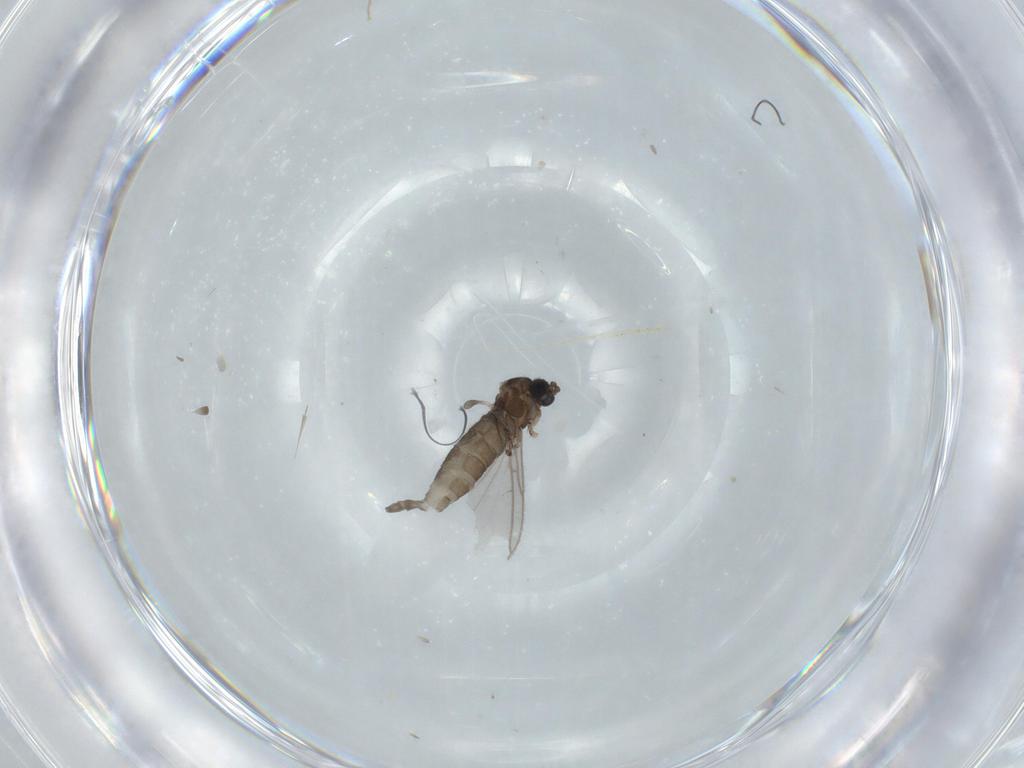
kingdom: Animalia
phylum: Arthropoda
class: Insecta
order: Diptera
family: Sciaridae
